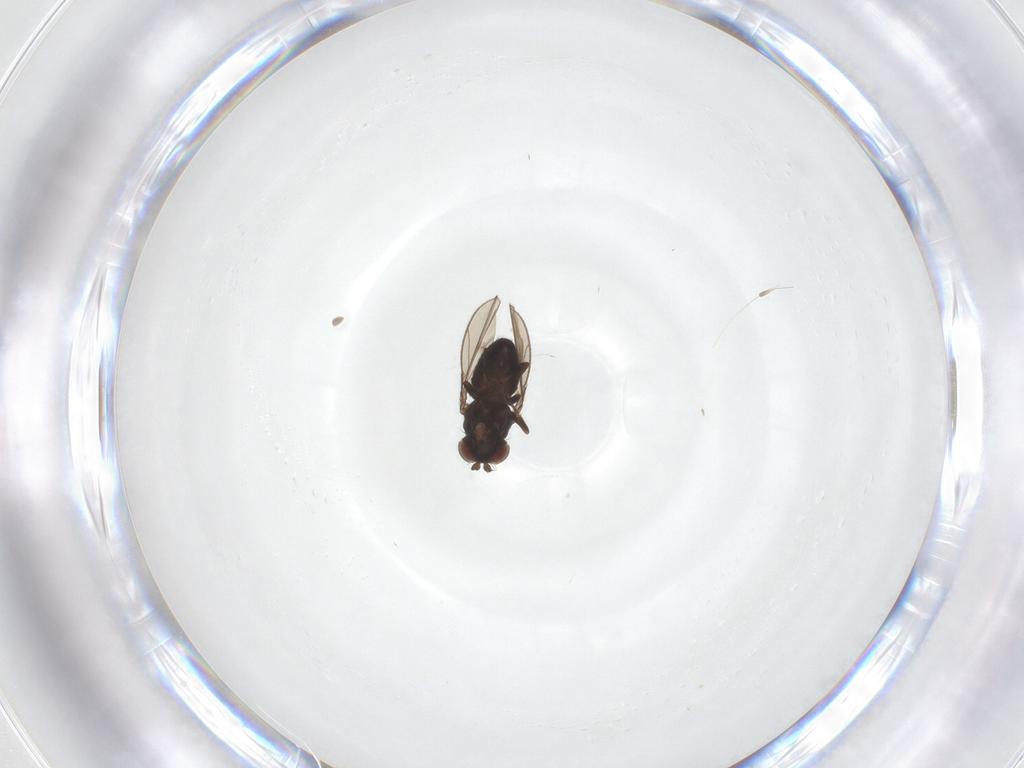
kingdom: Animalia
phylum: Arthropoda
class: Insecta
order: Diptera
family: Ephydridae
